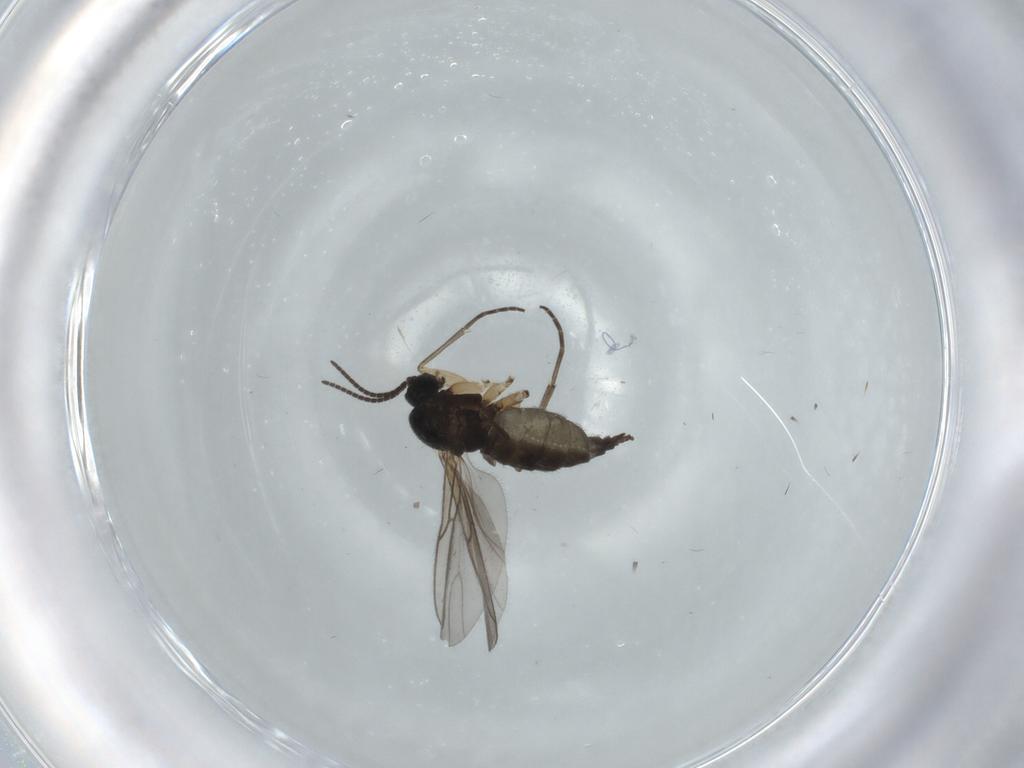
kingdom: Animalia
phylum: Arthropoda
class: Insecta
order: Diptera
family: Sciaridae
